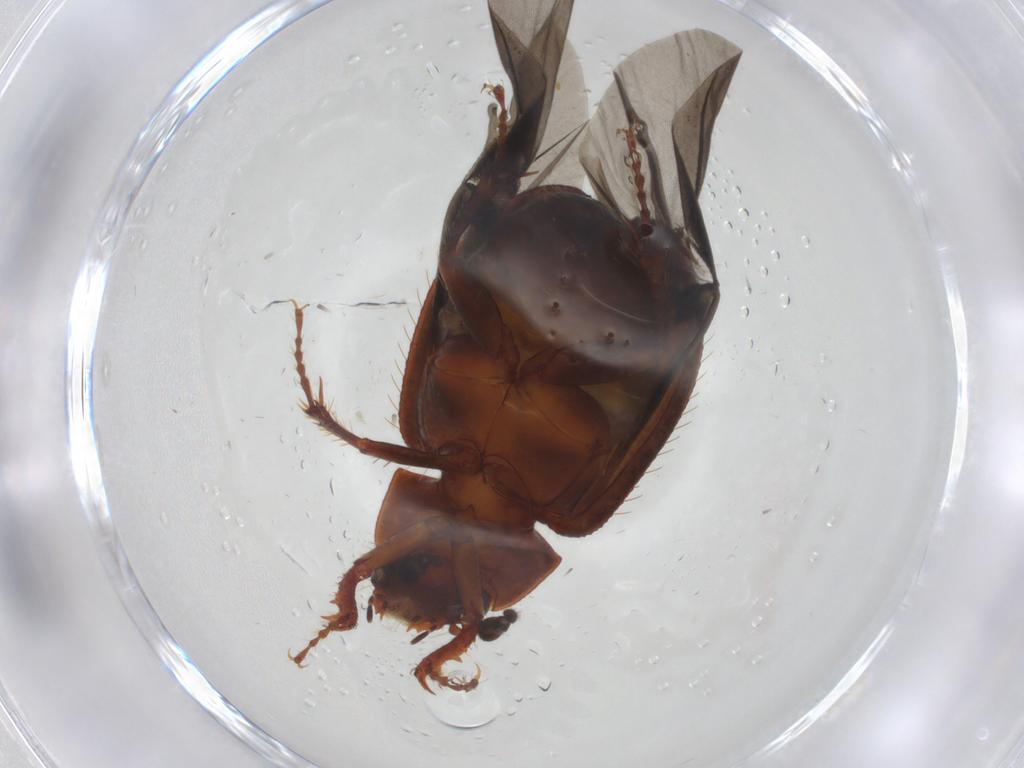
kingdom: Animalia
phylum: Arthropoda
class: Insecta
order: Coleoptera
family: Hybosoridae
